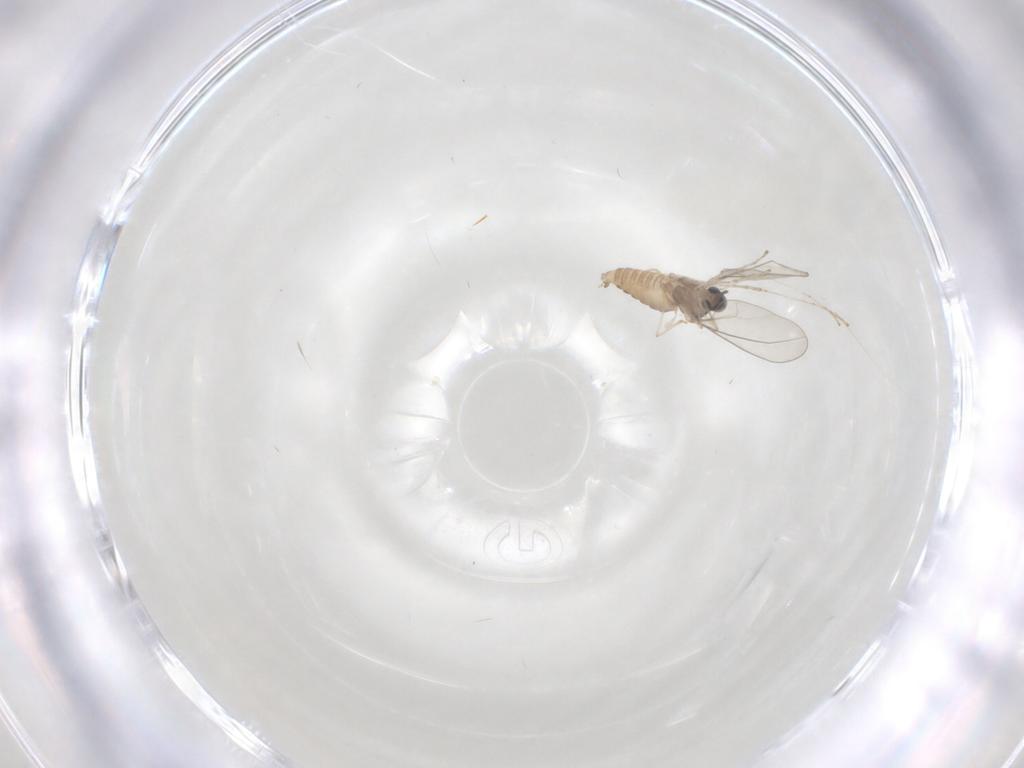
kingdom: Animalia
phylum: Arthropoda
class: Insecta
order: Diptera
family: Cecidomyiidae
